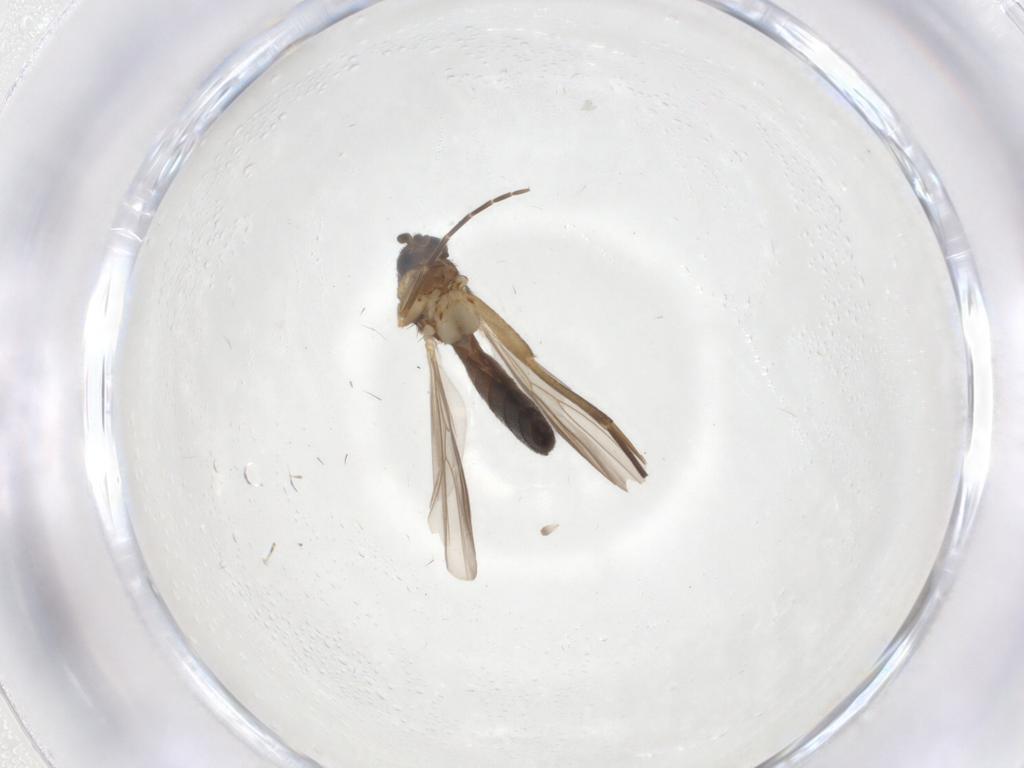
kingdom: Animalia
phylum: Arthropoda
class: Insecta
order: Diptera
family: Mycetophilidae
